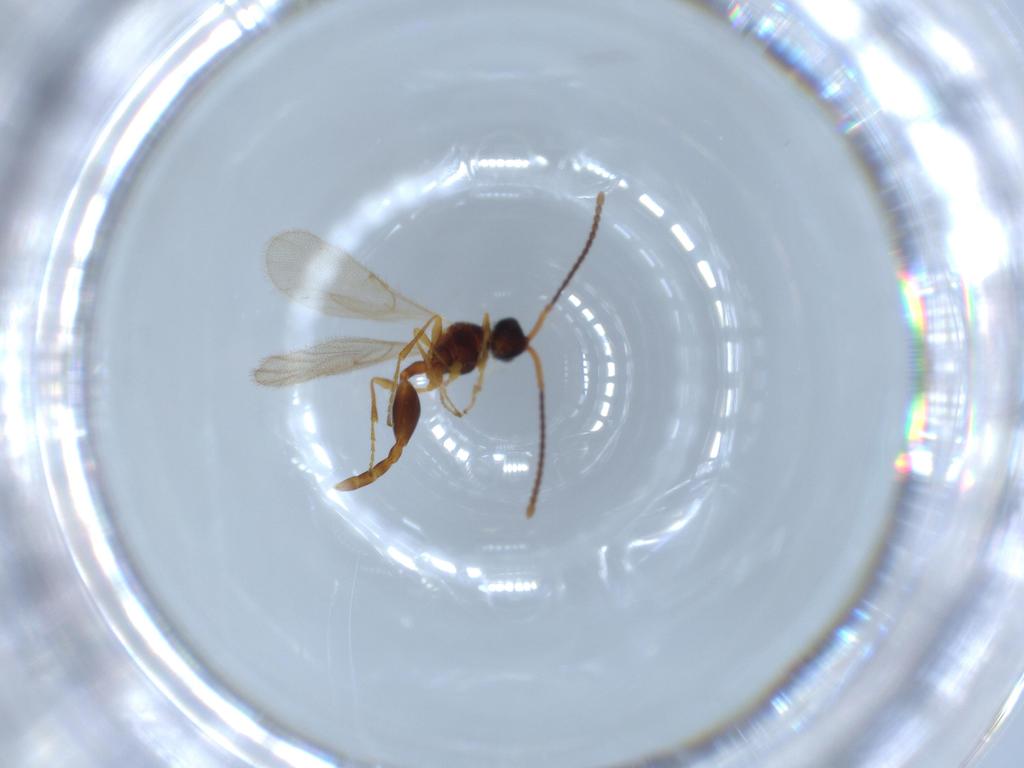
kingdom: Animalia
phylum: Arthropoda
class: Insecta
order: Hymenoptera
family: Diapriidae
